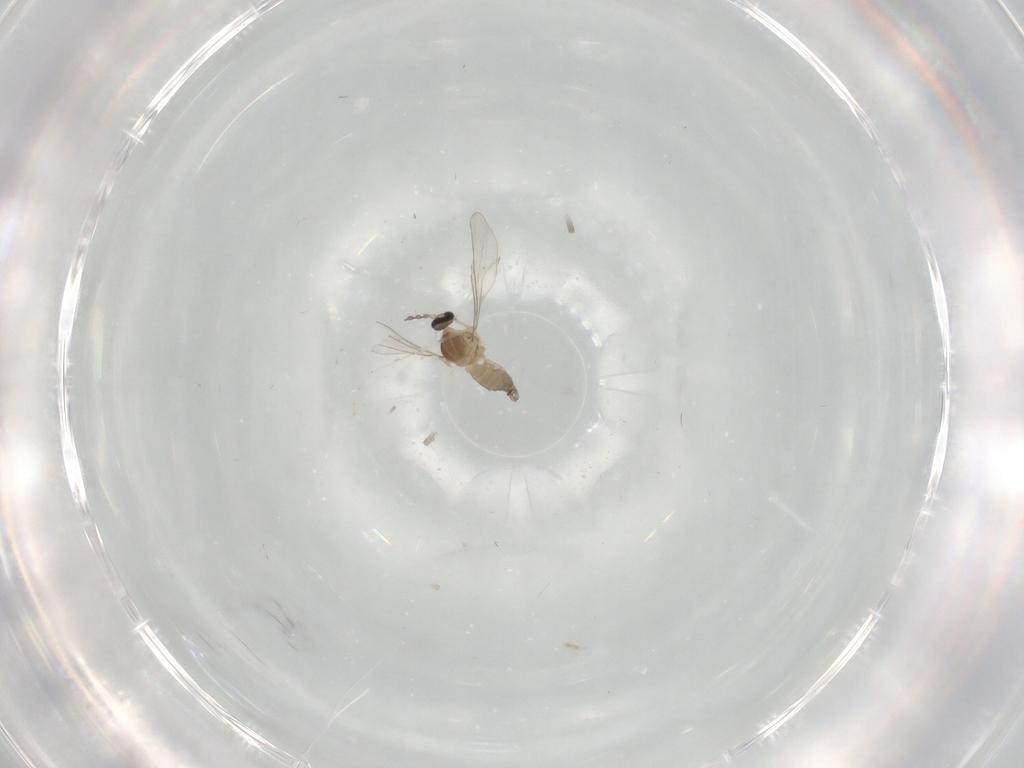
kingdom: Animalia
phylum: Arthropoda
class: Insecta
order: Diptera
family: Cecidomyiidae
